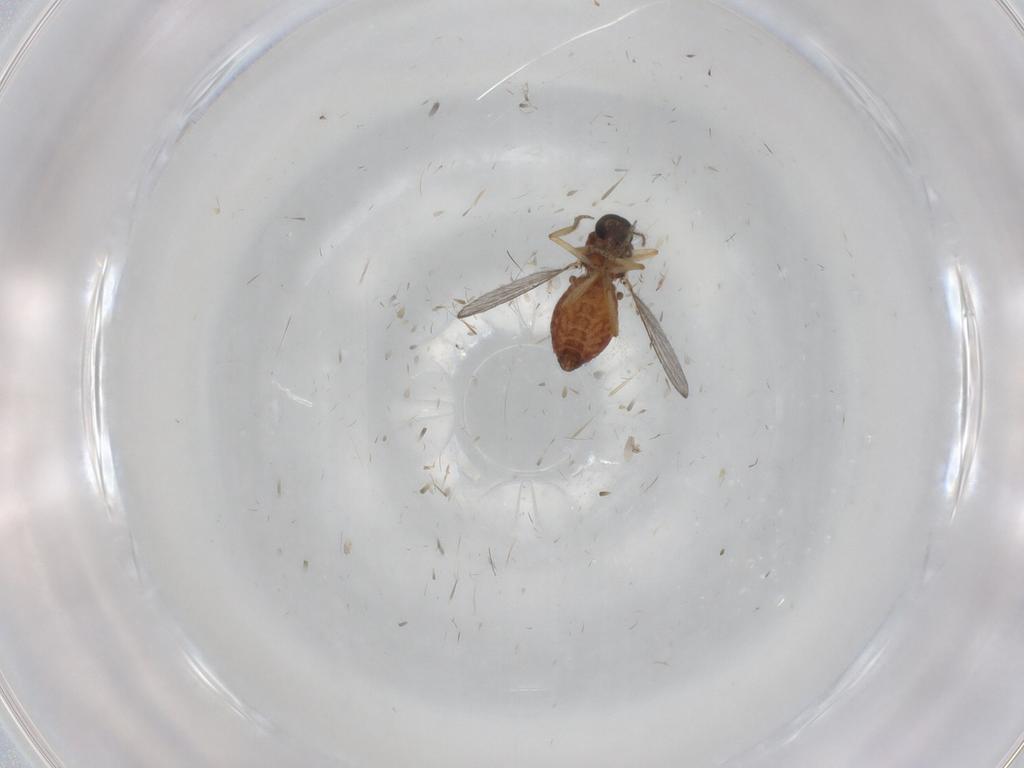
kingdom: Animalia
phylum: Arthropoda
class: Insecta
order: Diptera
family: Ceratopogonidae
